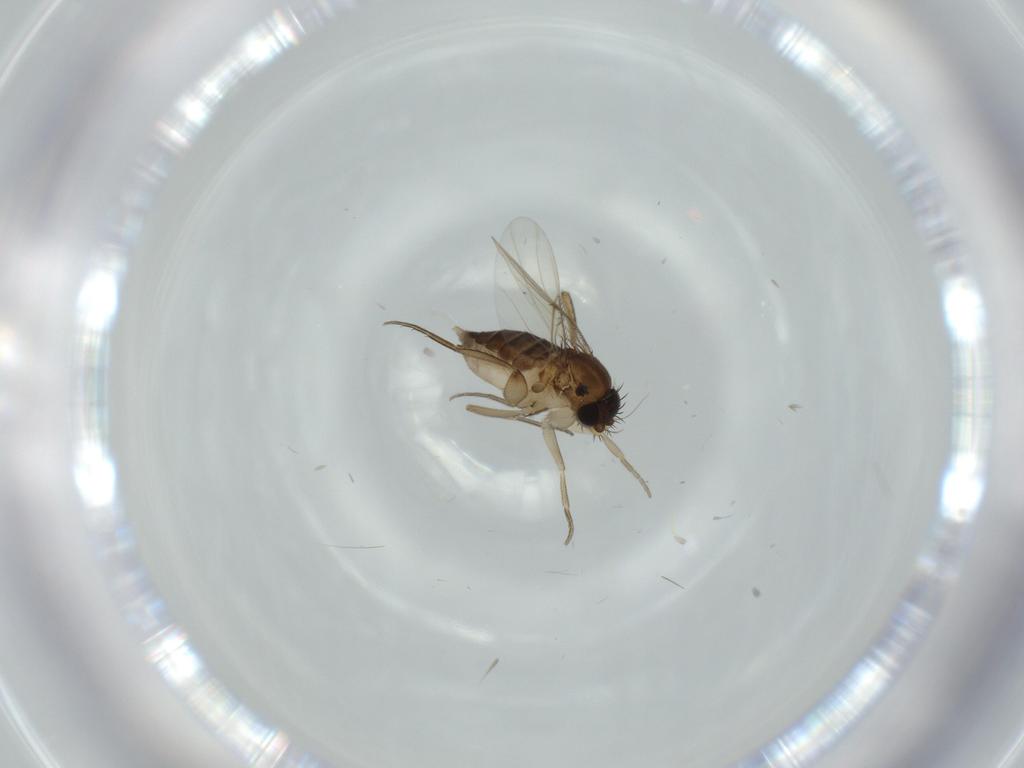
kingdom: Animalia
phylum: Arthropoda
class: Insecta
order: Diptera
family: Phoridae
